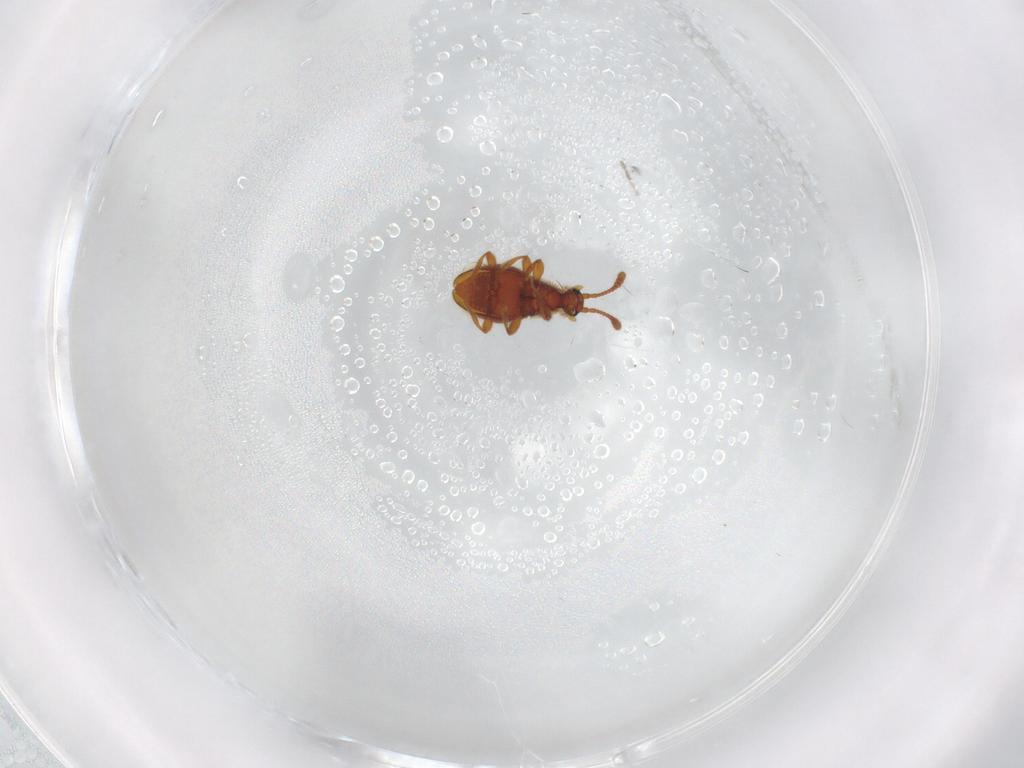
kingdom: Animalia
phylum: Arthropoda
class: Insecta
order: Coleoptera
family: Staphylinidae
